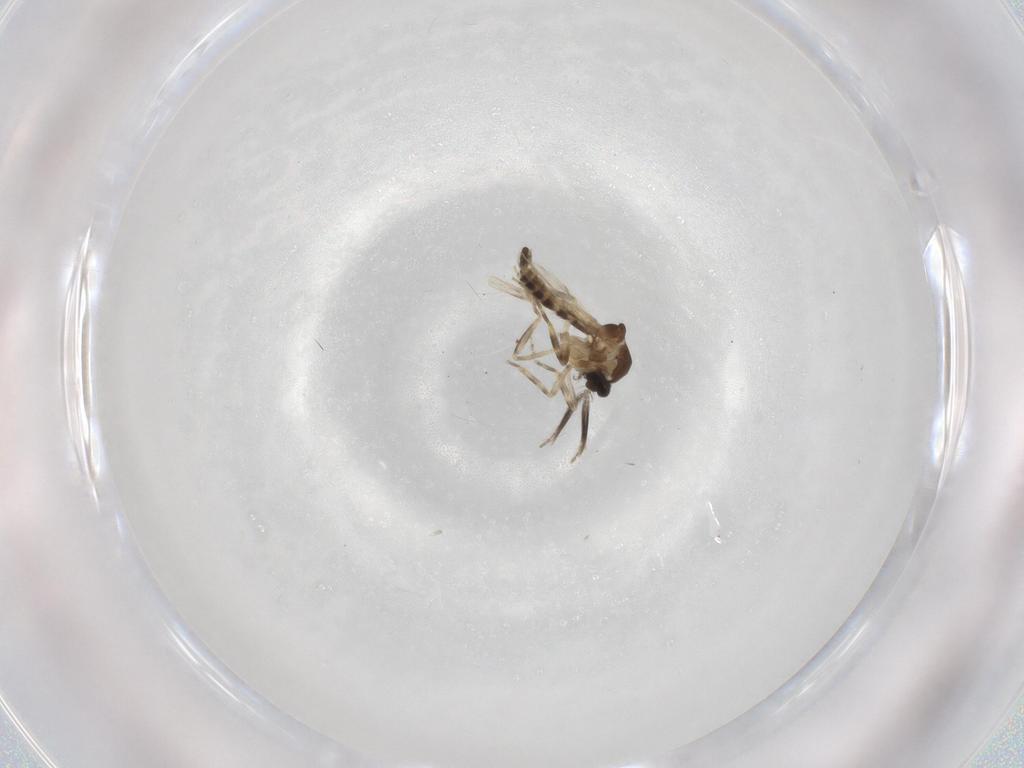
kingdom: Animalia
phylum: Arthropoda
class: Insecta
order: Diptera
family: Ceratopogonidae
